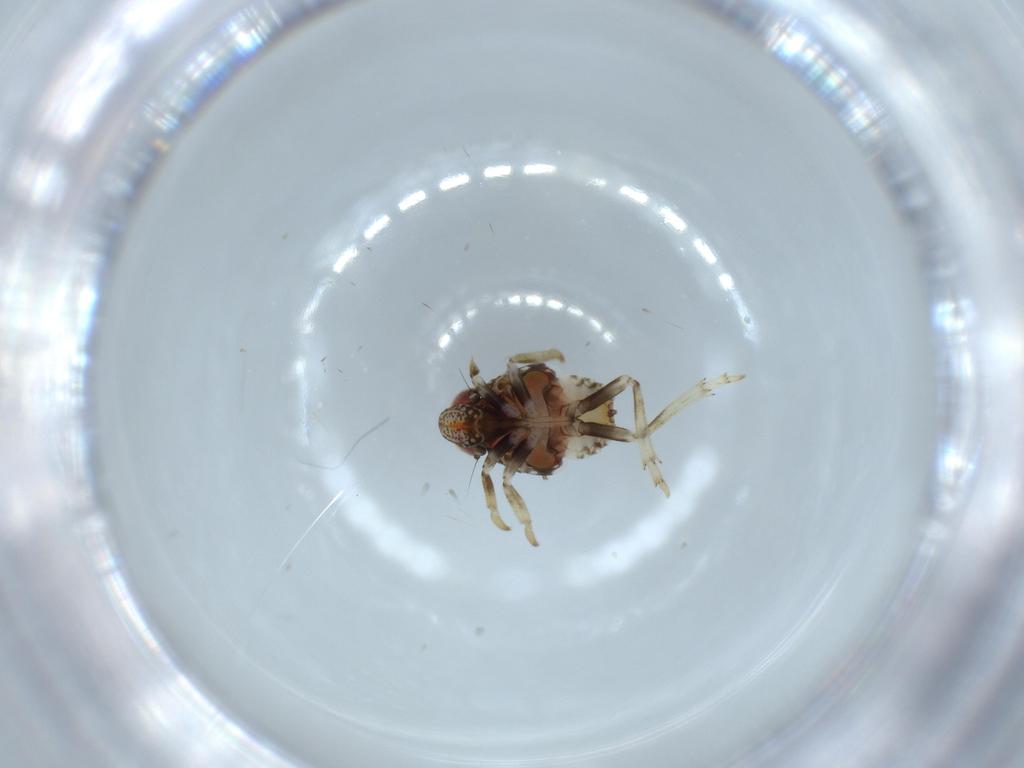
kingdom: Animalia
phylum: Arthropoda
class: Insecta
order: Hemiptera
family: Issidae
